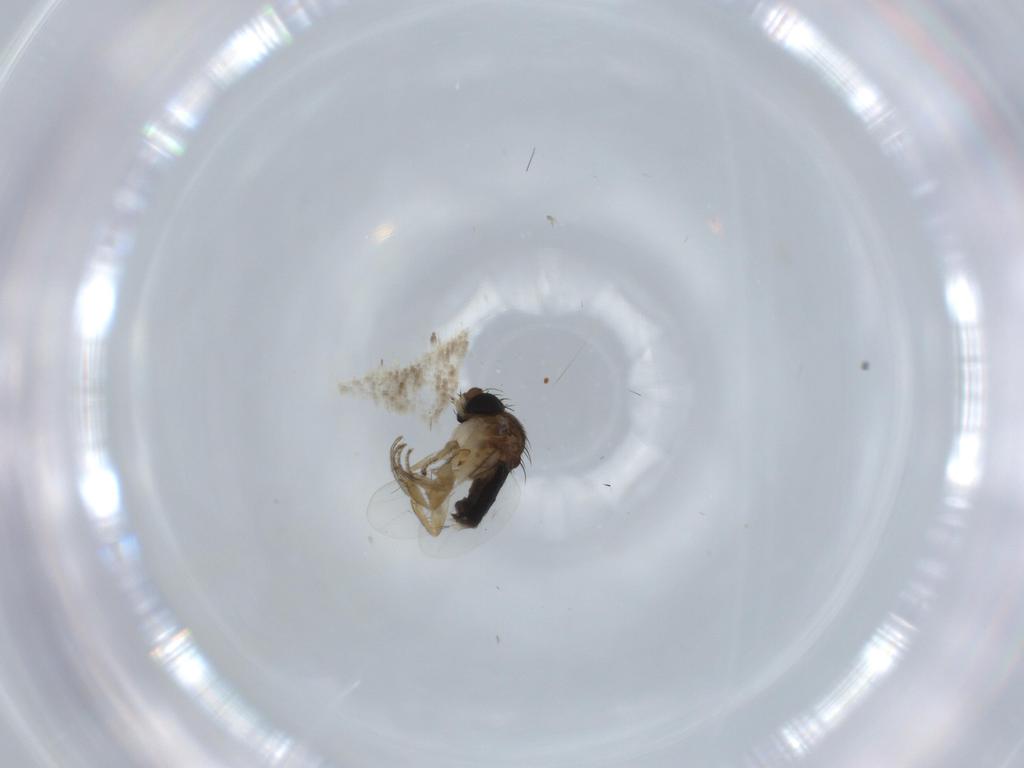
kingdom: Animalia
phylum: Arthropoda
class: Insecta
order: Diptera
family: Phoridae
